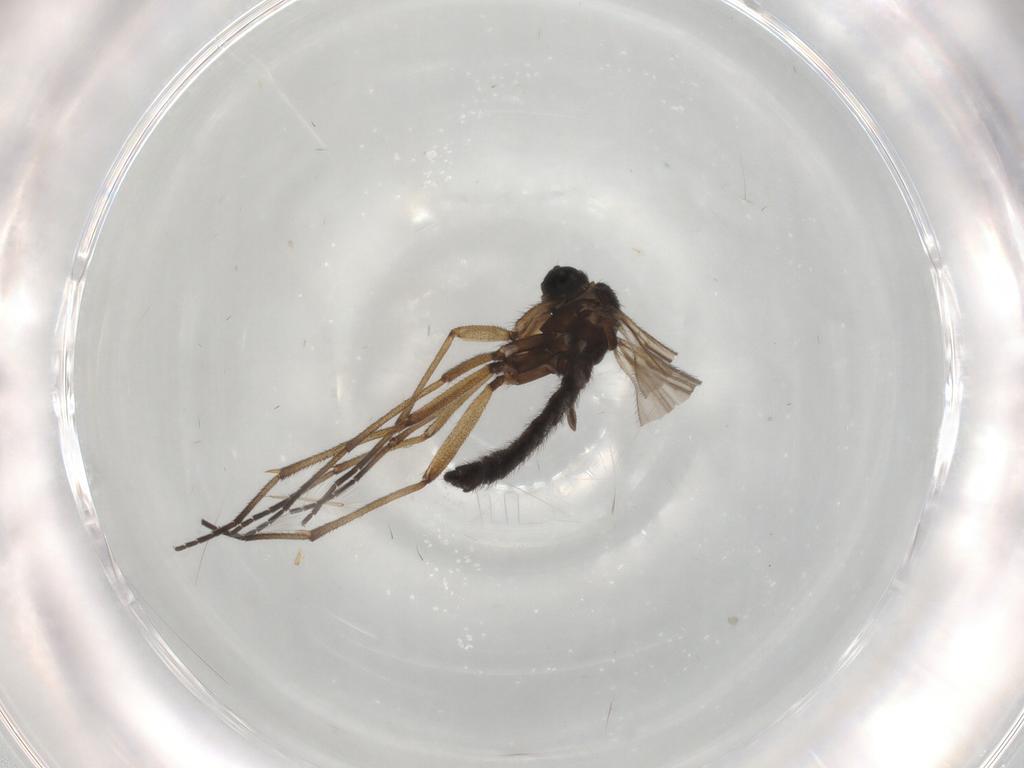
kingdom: Animalia
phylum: Arthropoda
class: Insecta
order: Diptera
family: Sciaridae
